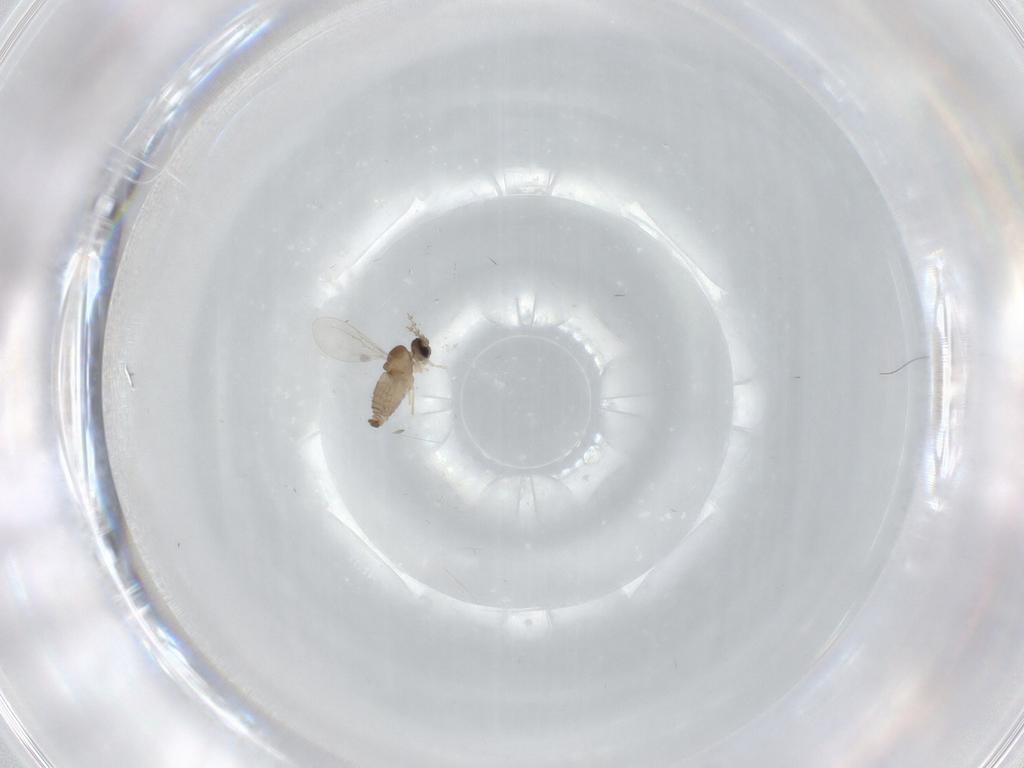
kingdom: Animalia
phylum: Arthropoda
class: Insecta
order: Diptera
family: Cecidomyiidae
